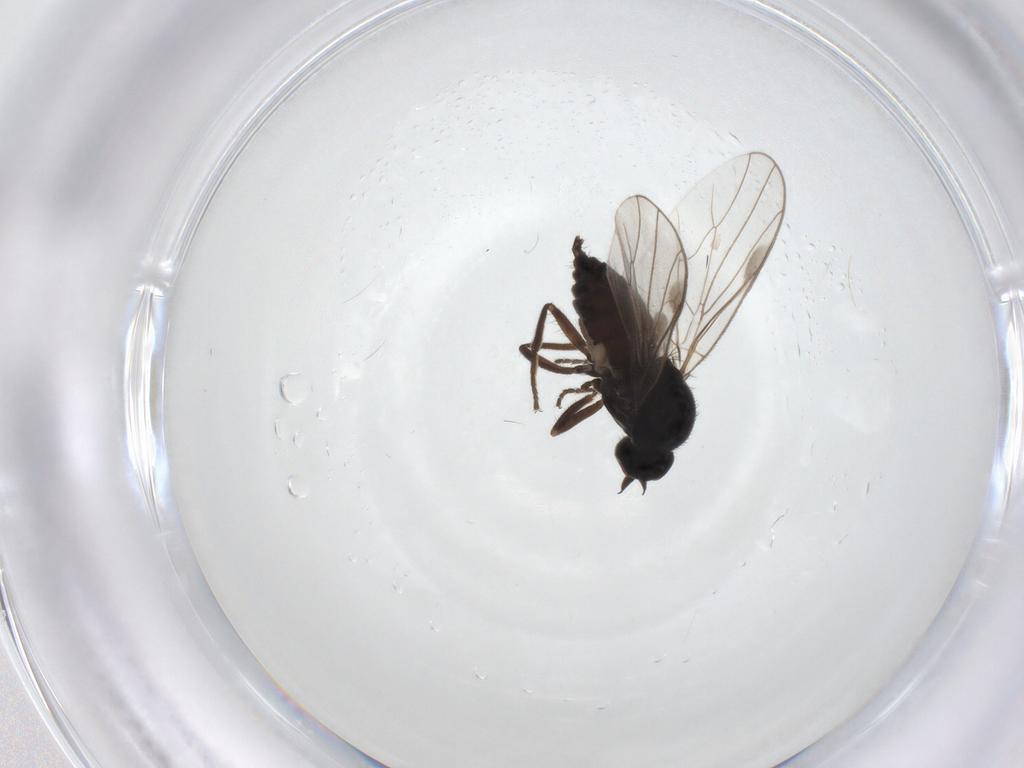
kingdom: Animalia
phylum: Arthropoda
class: Insecta
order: Diptera
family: Hybotidae
